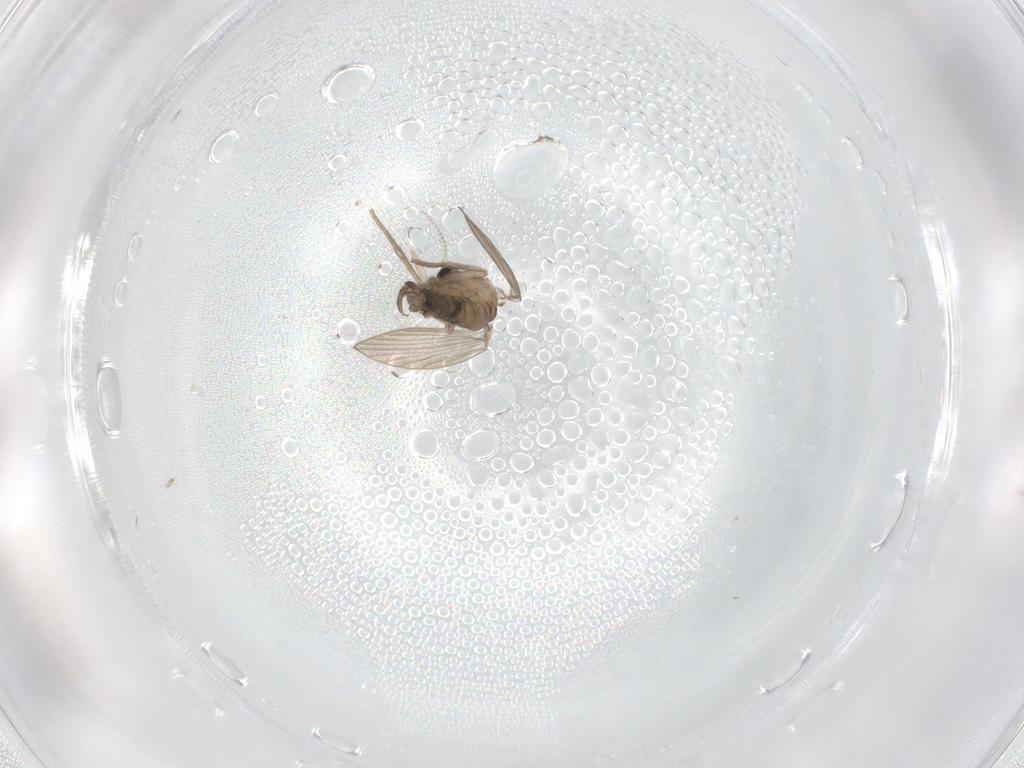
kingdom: Animalia
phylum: Arthropoda
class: Insecta
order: Diptera
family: Psychodidae
